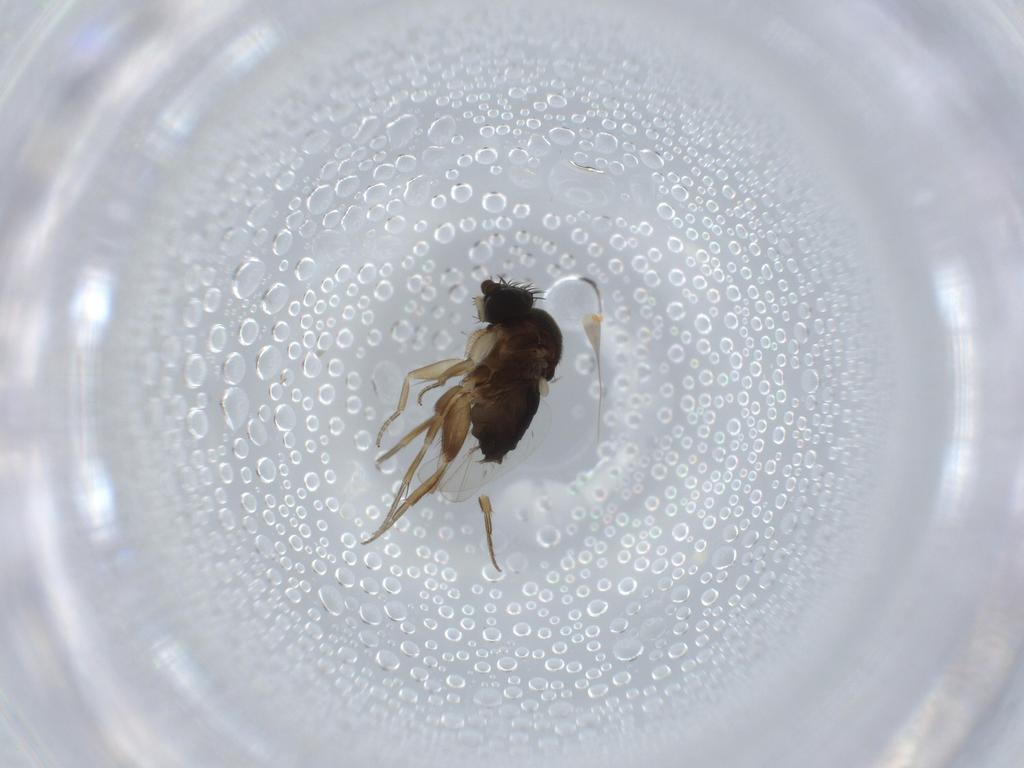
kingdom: Animalia
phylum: Arthropoda
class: Insecta
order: Diptera
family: Phoridae
